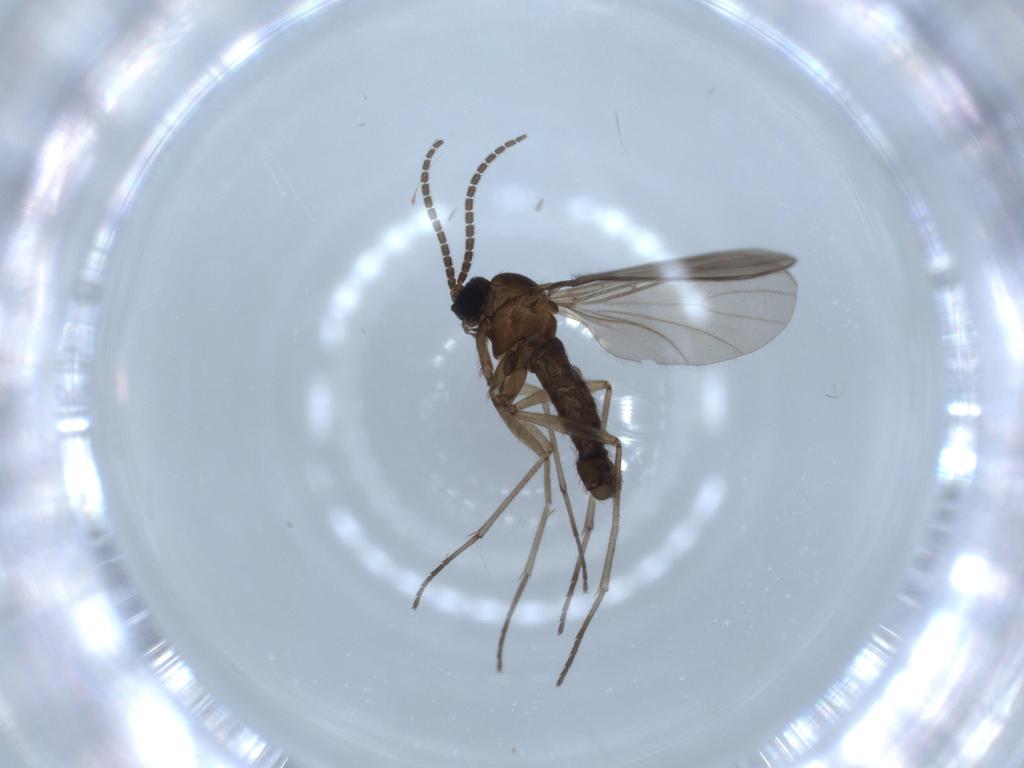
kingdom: Animalia
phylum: Arthropoda
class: Insecta
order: Diptera
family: Sciaridae
